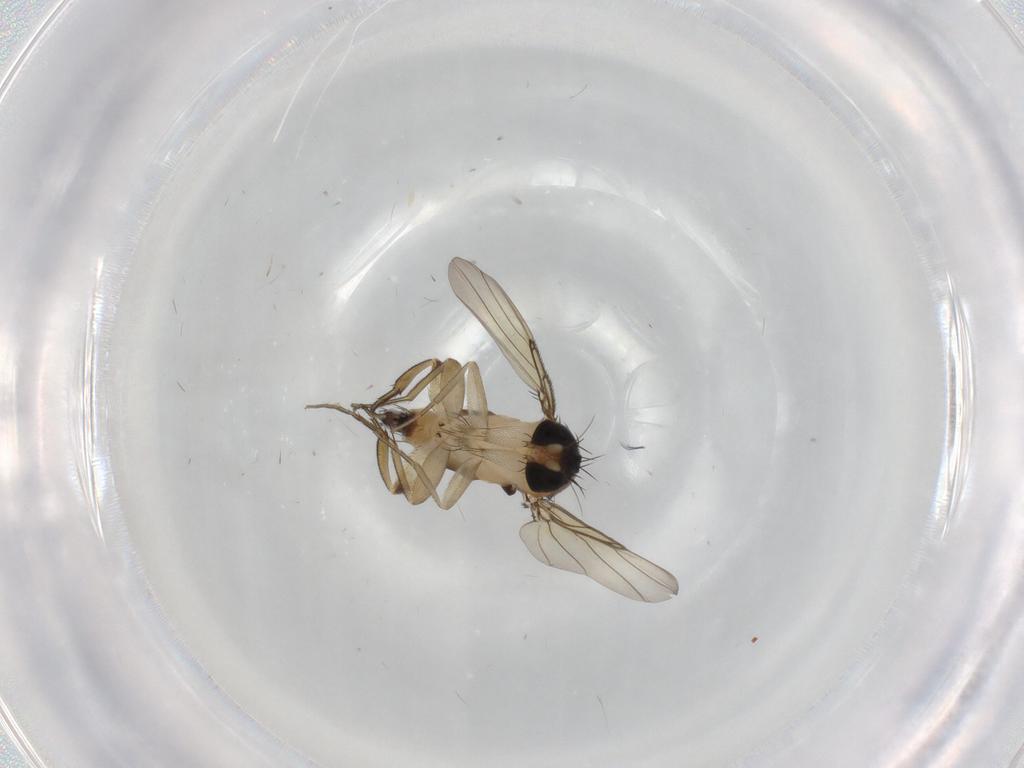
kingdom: Animalia
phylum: Arthropoda
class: Insecta
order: Diptera
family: Phoridae
